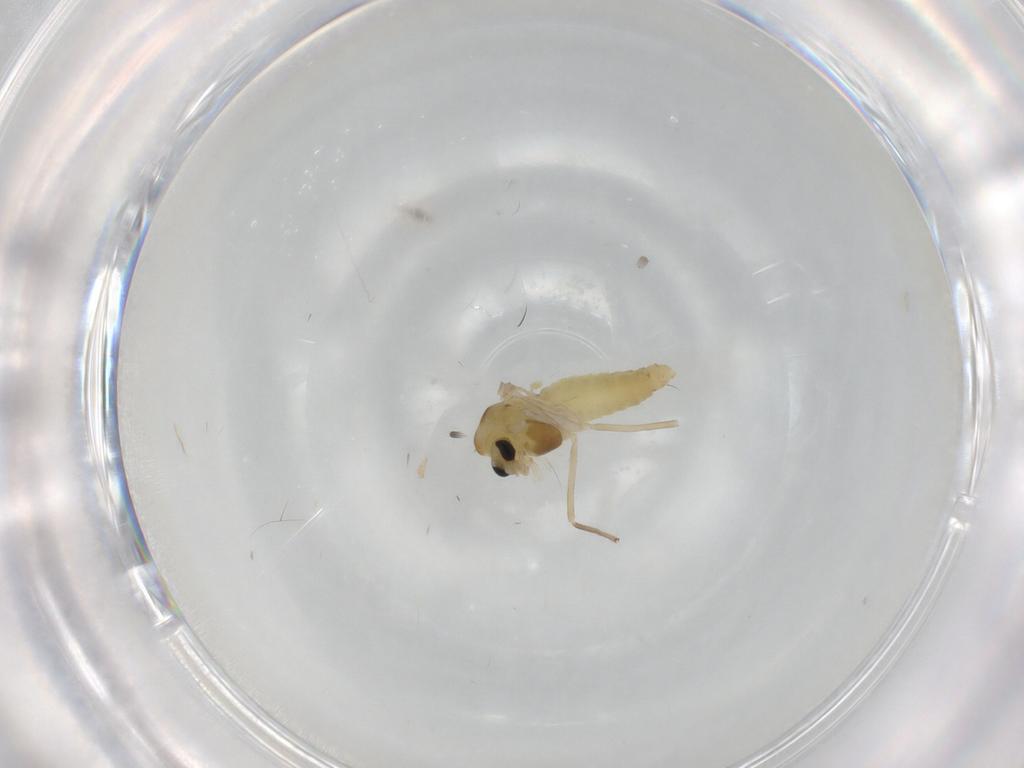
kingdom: Animalia
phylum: Arthropoda
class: Insecta
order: Diptera
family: Chironomidae
